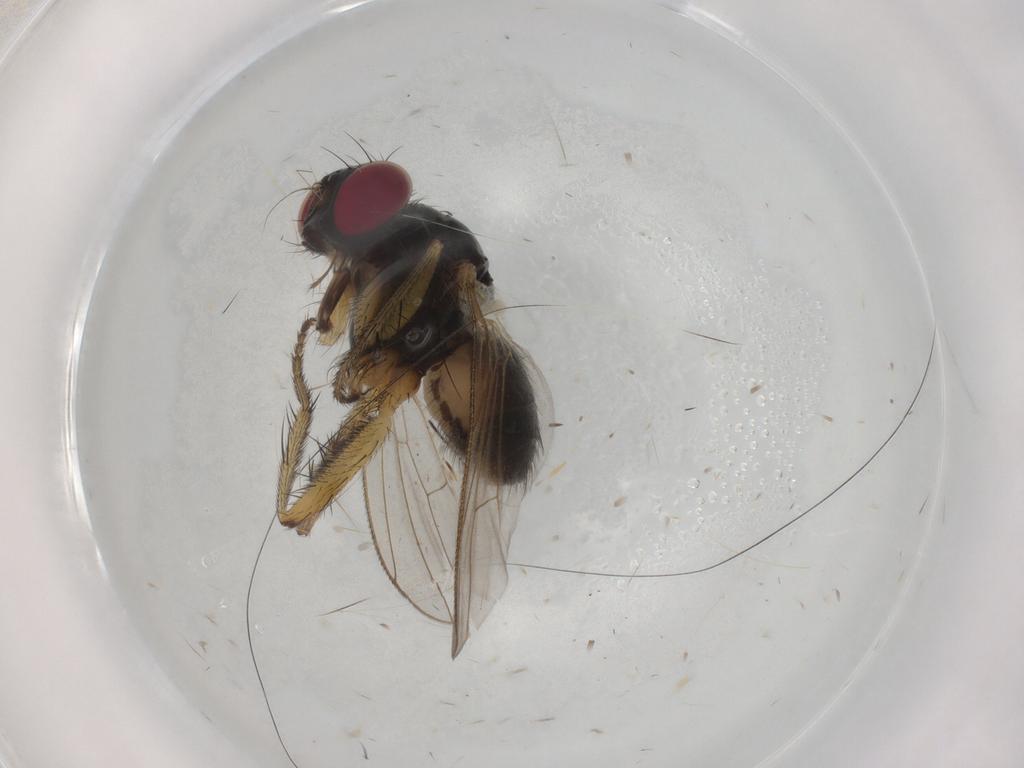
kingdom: Animalia
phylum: Arthropoda
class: Insecta
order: Diptera
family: Muscidae
